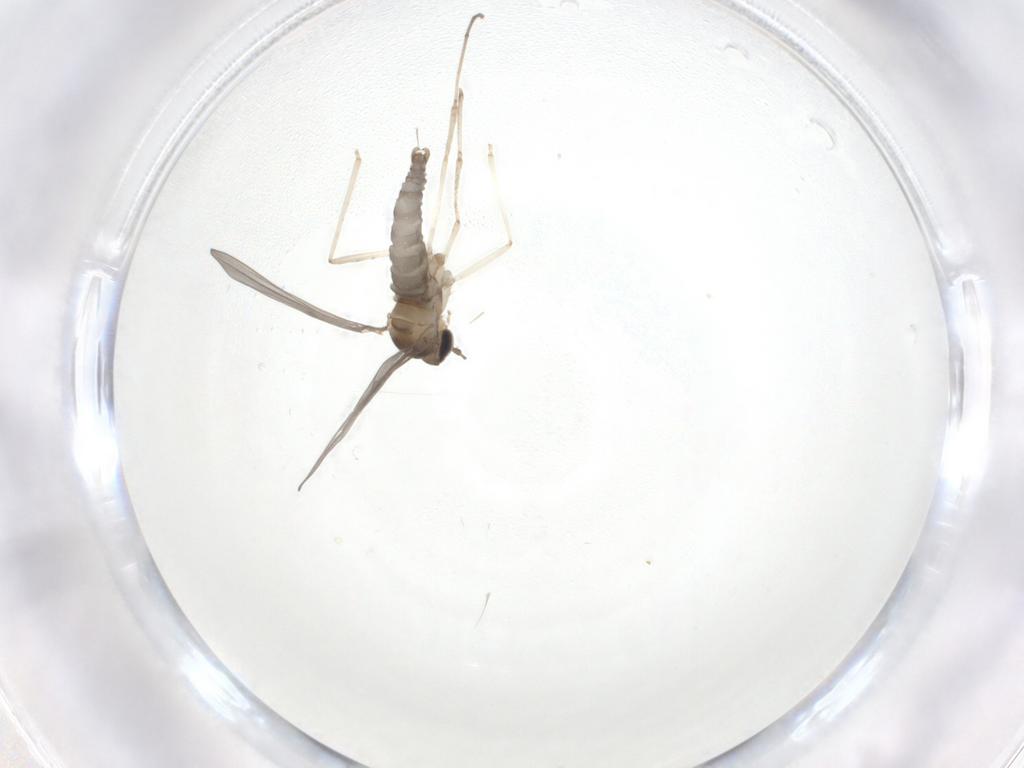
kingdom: Animalia
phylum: Arthropoda
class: Insecta
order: Diptera
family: Cecidomyiidae
